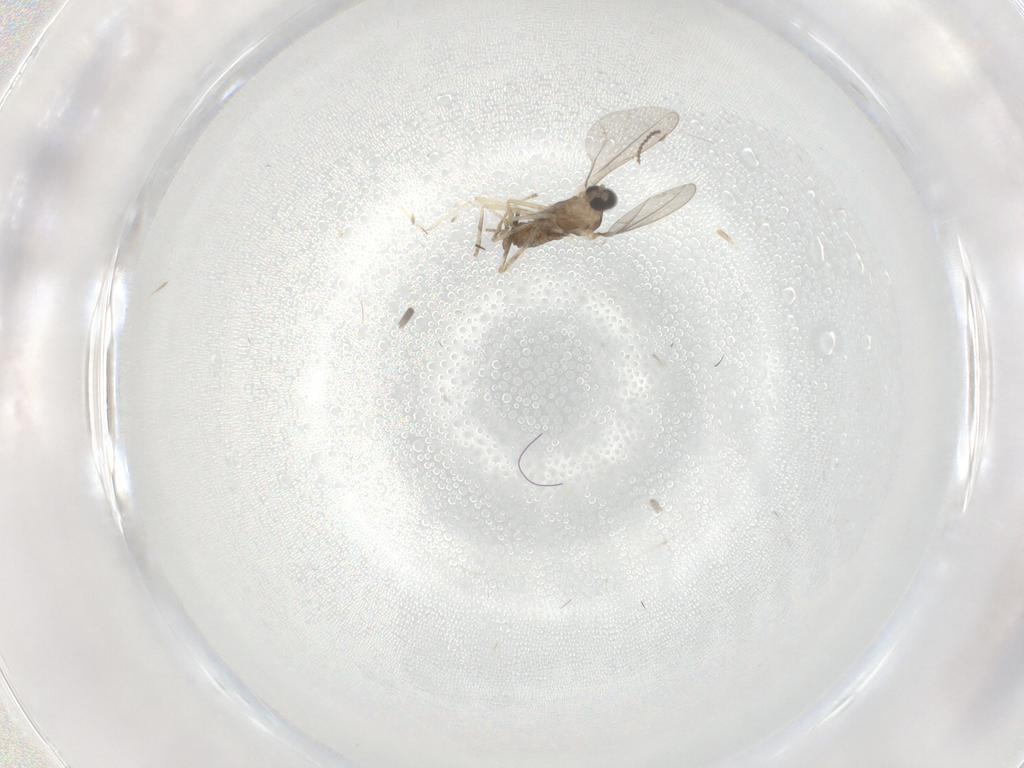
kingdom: Animalia
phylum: Arthropoda
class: Insecta
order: Diptera
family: Cecidomyiidae
